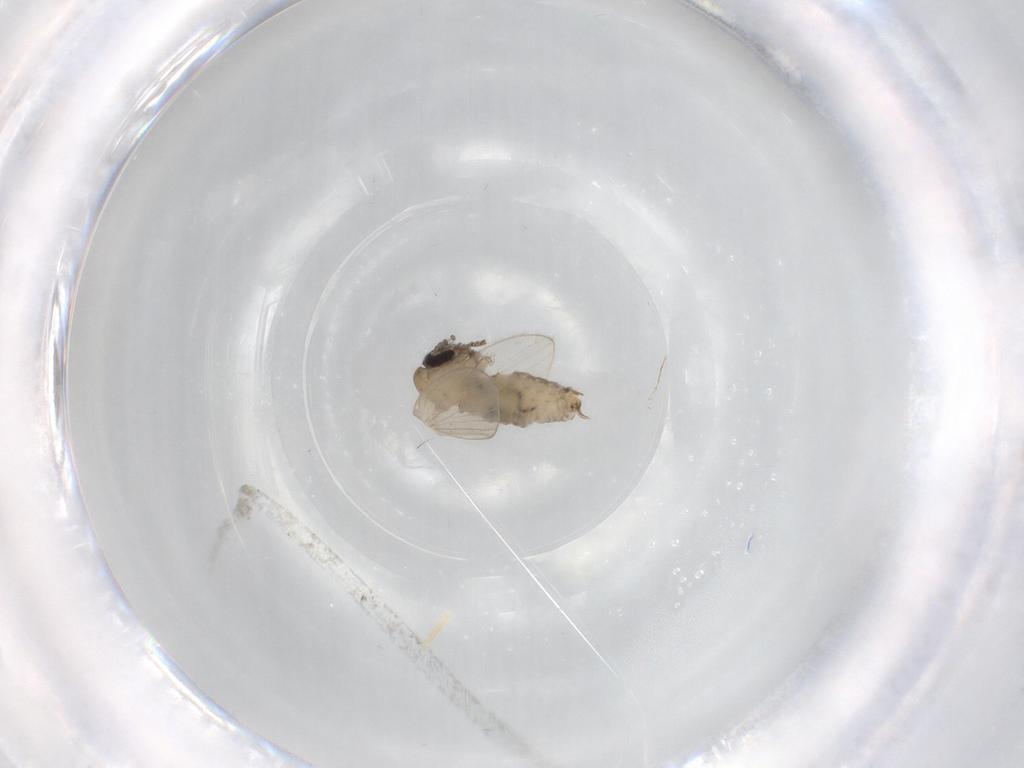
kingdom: Animalia
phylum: Arthropoda
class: Insecta
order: Diptera
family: Psychodidae
